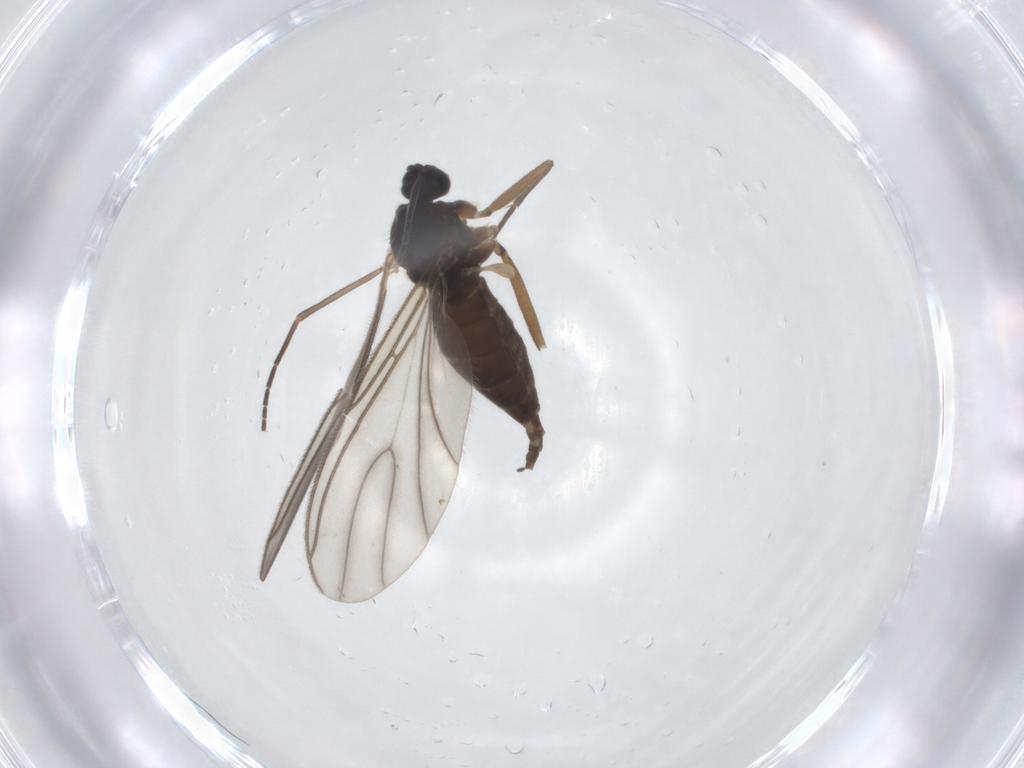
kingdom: Animalia
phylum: Arthropoda
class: Insecta
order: Diptera
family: Sciaridae
